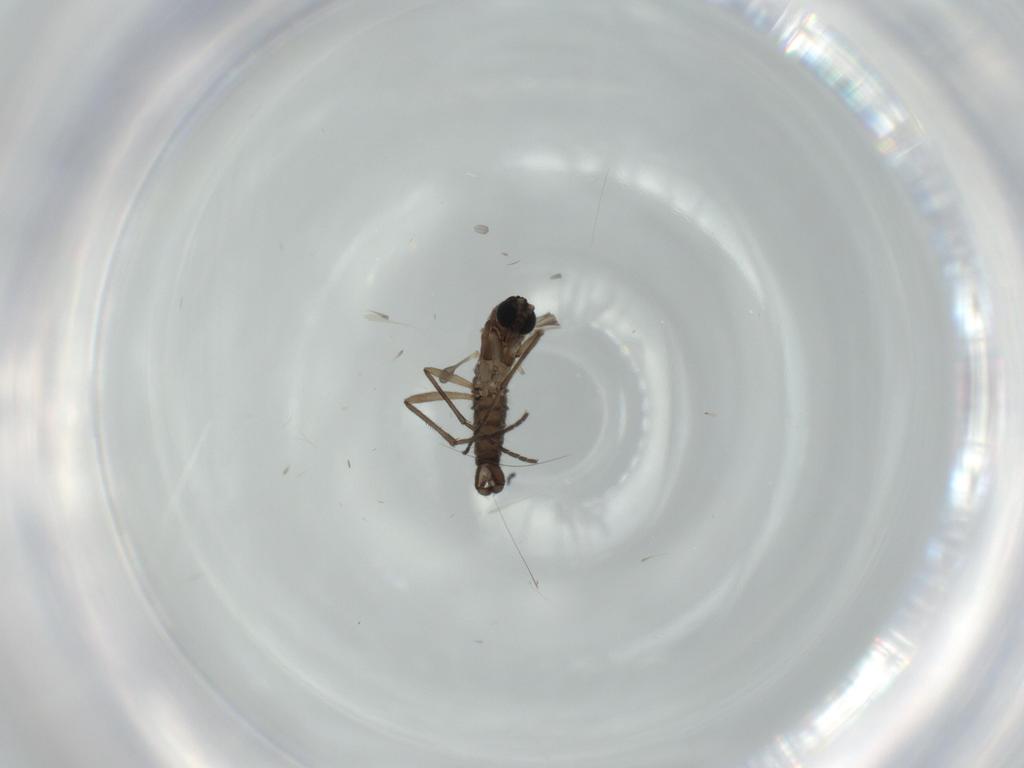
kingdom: Animalia
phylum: Arthropoda
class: Insecta
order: Diptera
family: Sciaridae
